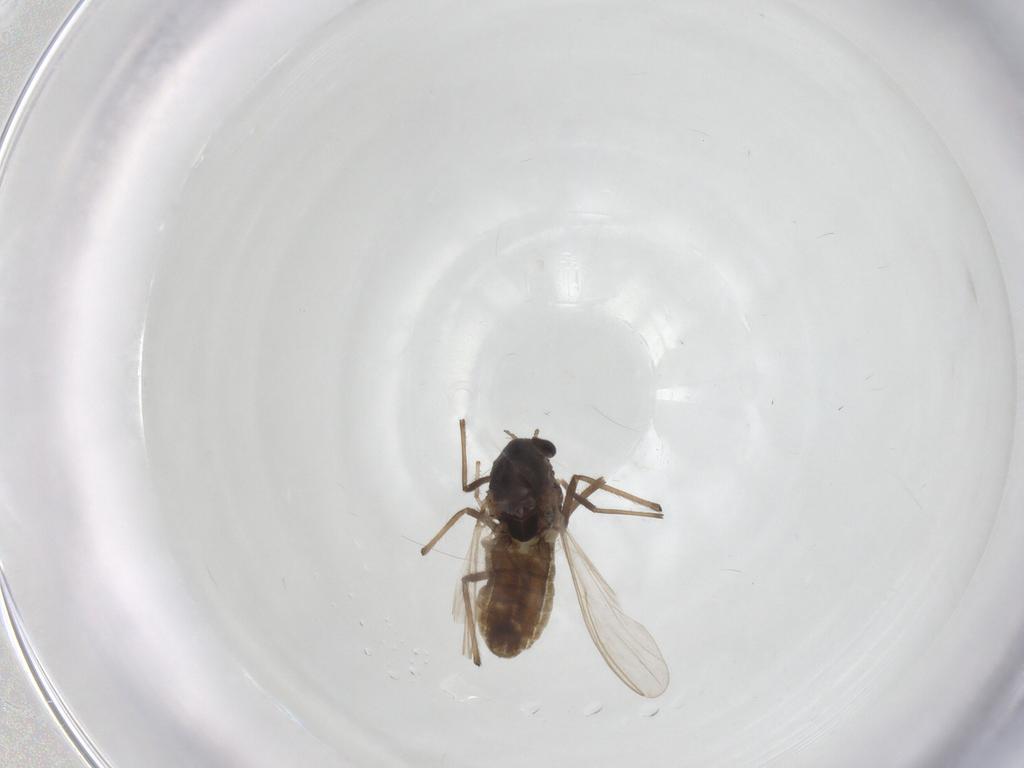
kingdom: Animalia
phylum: Arthropoda
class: Insecta
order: Diptera
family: Chironomidae
